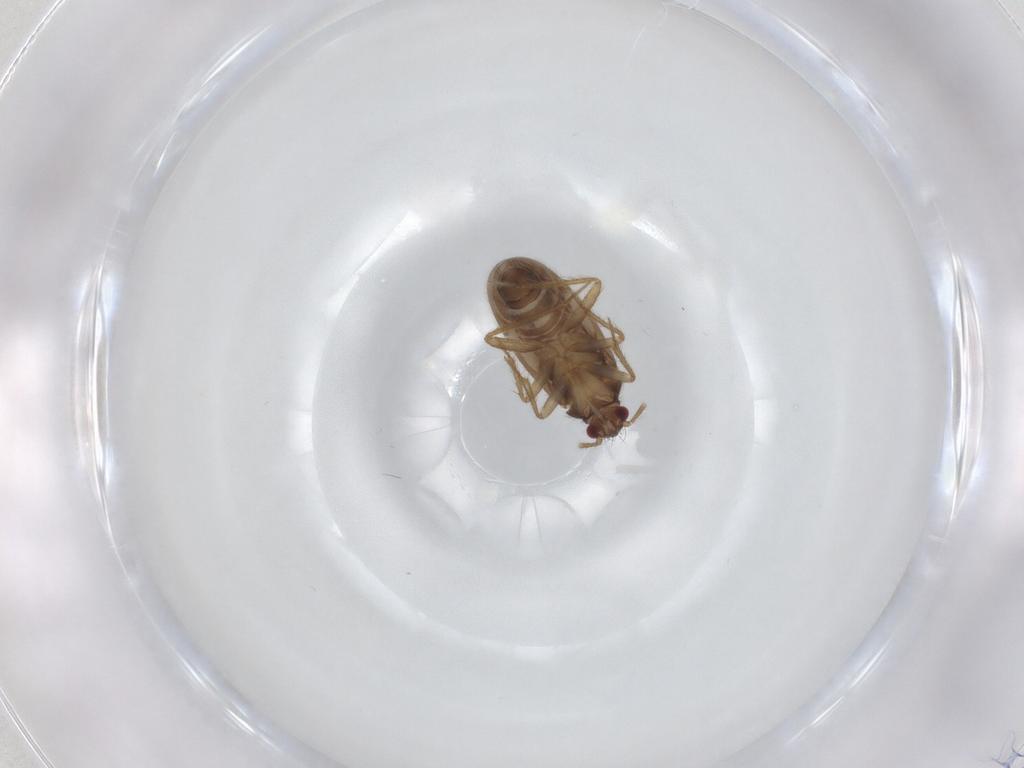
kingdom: Animalia
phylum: Arthropoda
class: Insecta
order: Hemiptera
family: Ceratocombidae
